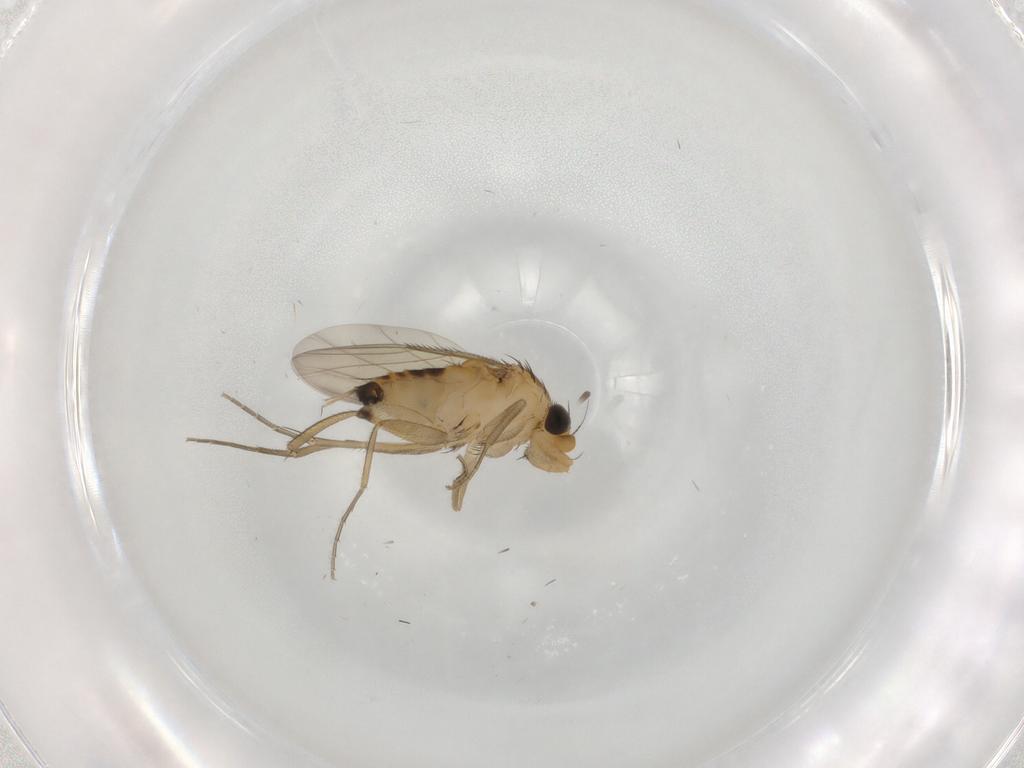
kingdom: Animalia
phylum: Arthropoda
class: Insecta
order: Diptera
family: Phoridae
